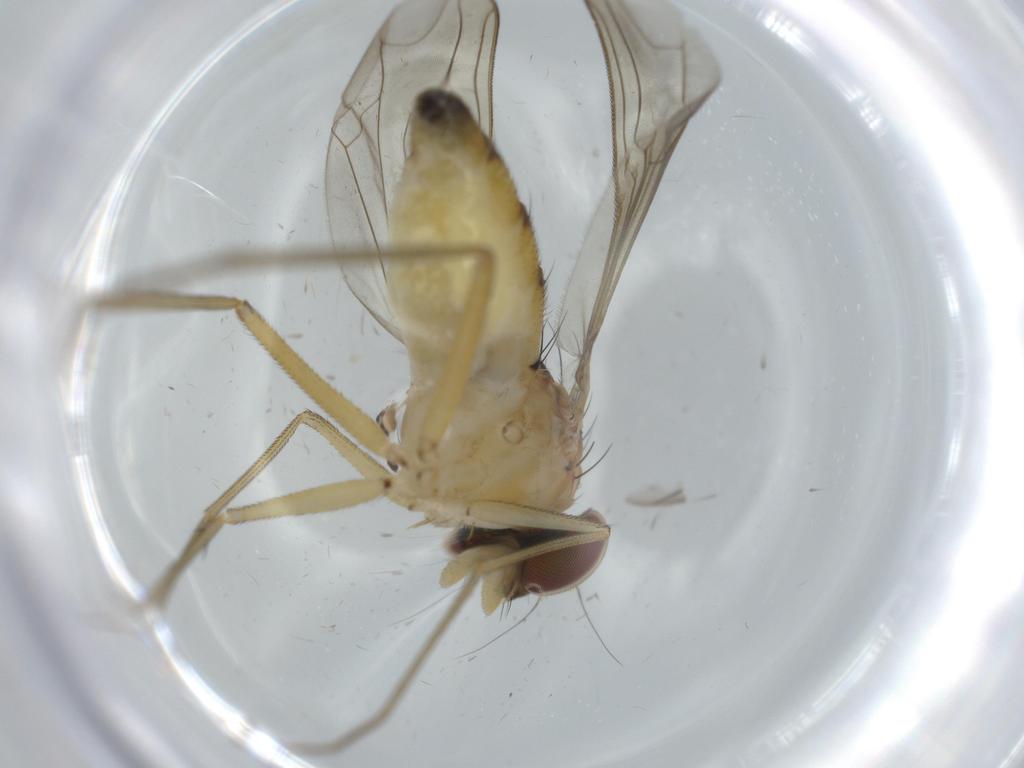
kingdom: Animalia
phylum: Arthropoda
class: Insecta
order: Diptera
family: Dolichopodidae
